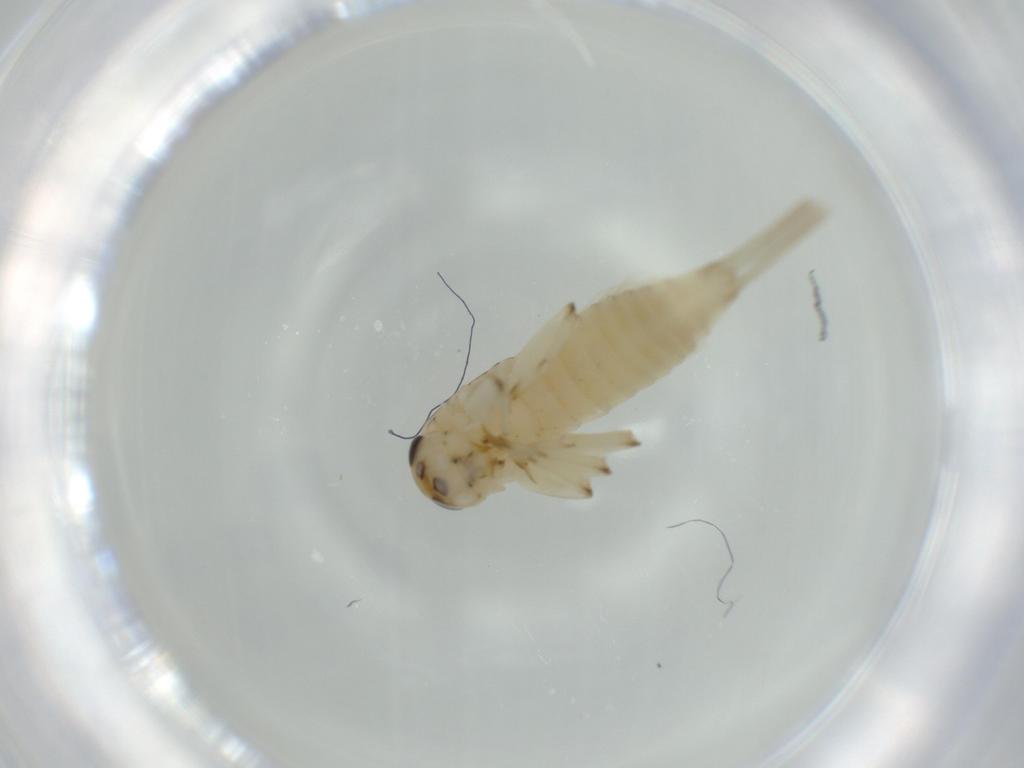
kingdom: Animalia
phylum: Arthropoda
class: Insecta
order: Ephemeroptera
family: Baetidae
